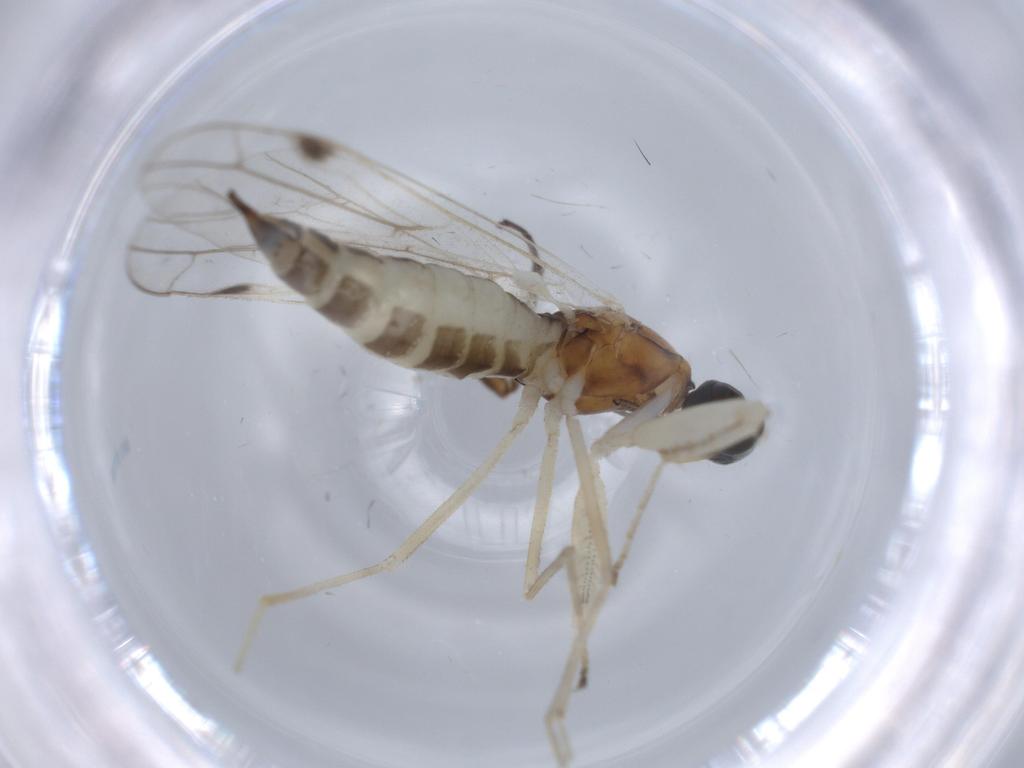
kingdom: Animalia
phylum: Arthropoda
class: Insecta
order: Diptera
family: Empididae
